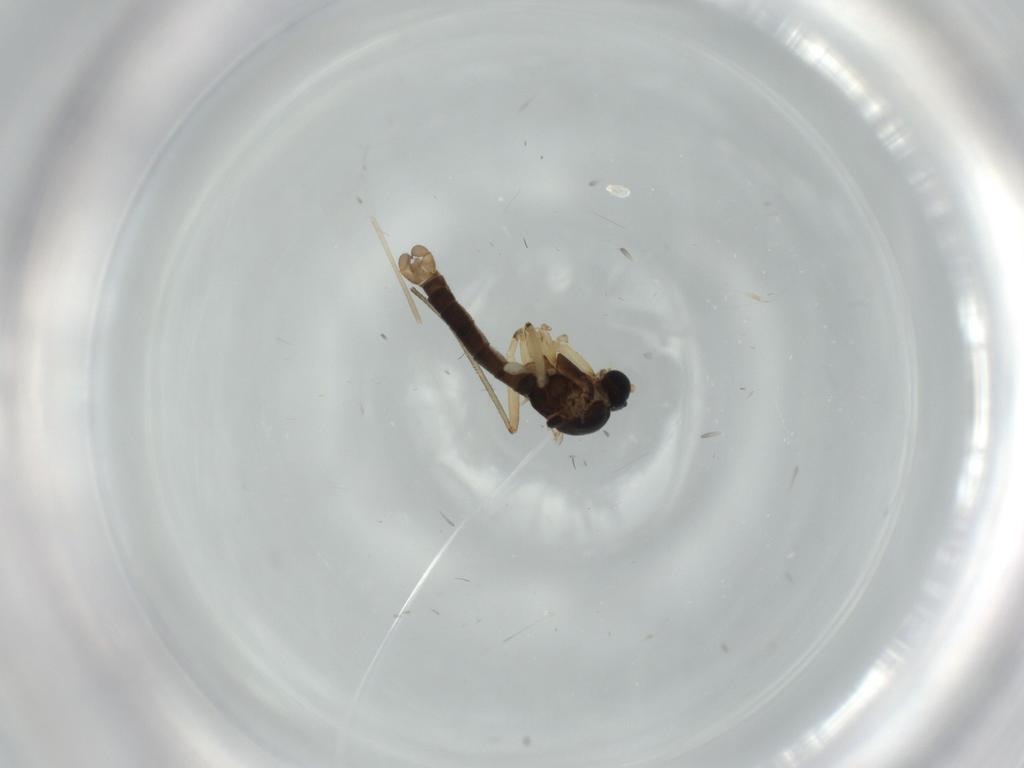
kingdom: Animalia
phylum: Arthropoda
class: Insecta
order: Diptera
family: Sciaridae
